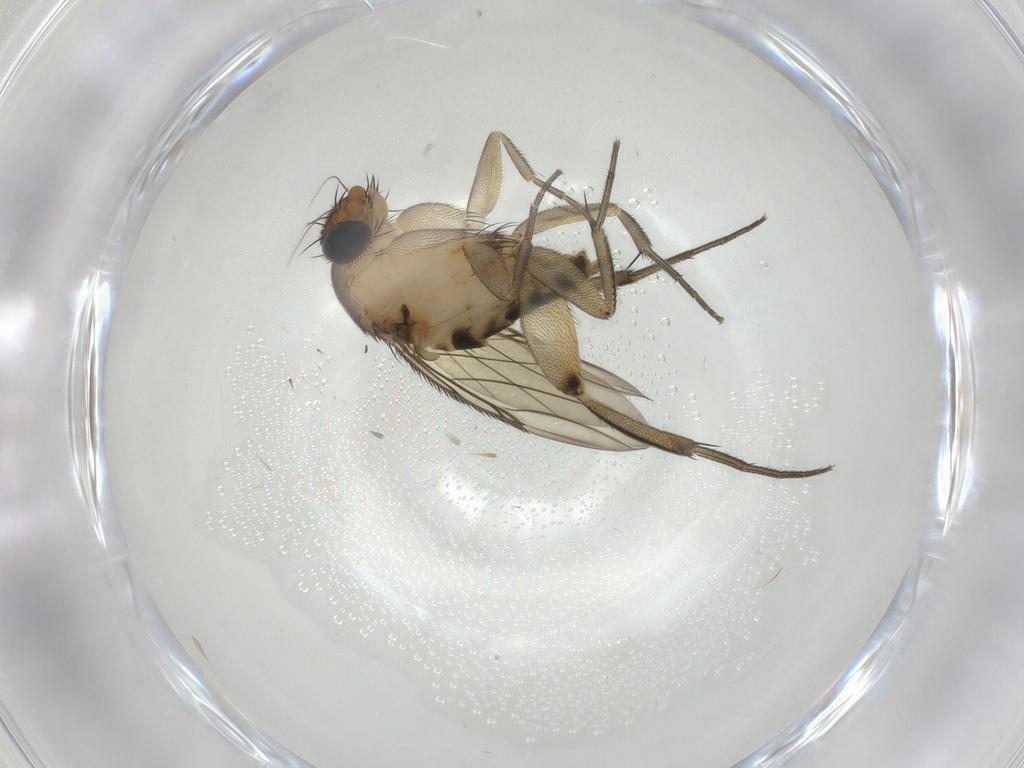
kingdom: Animalia
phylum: Arthropoda
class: Insecta
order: Diptera
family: Phoridae
